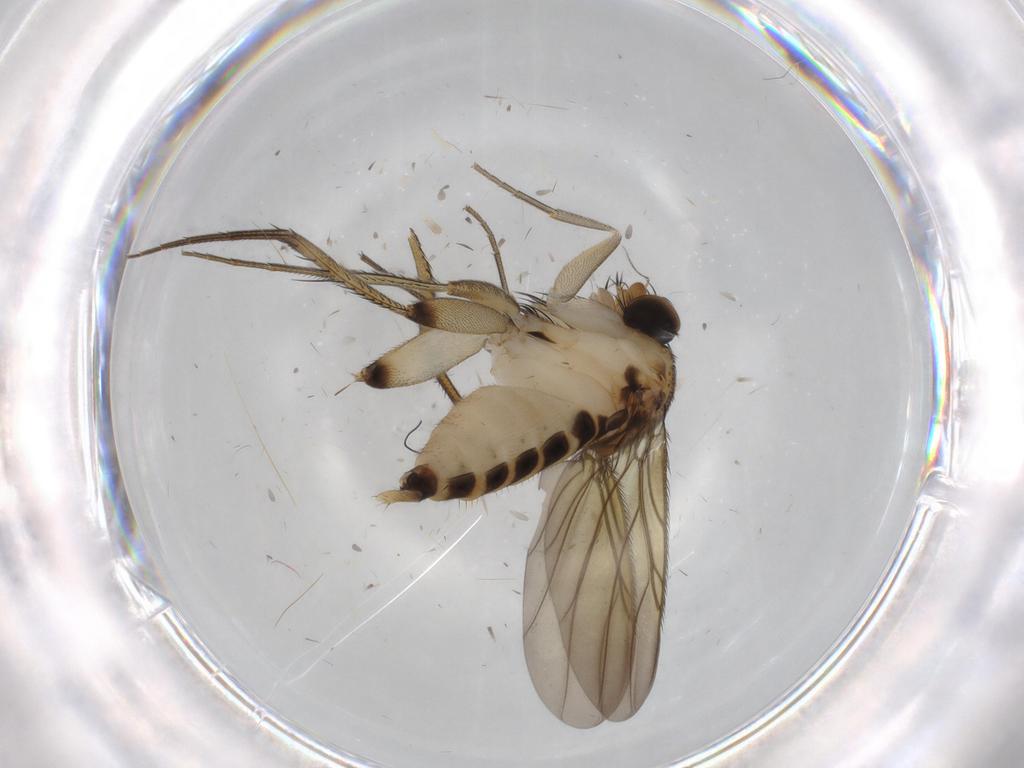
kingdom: Animalia
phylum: Arthropoda
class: Insecta
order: Diptera
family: Phoridae
